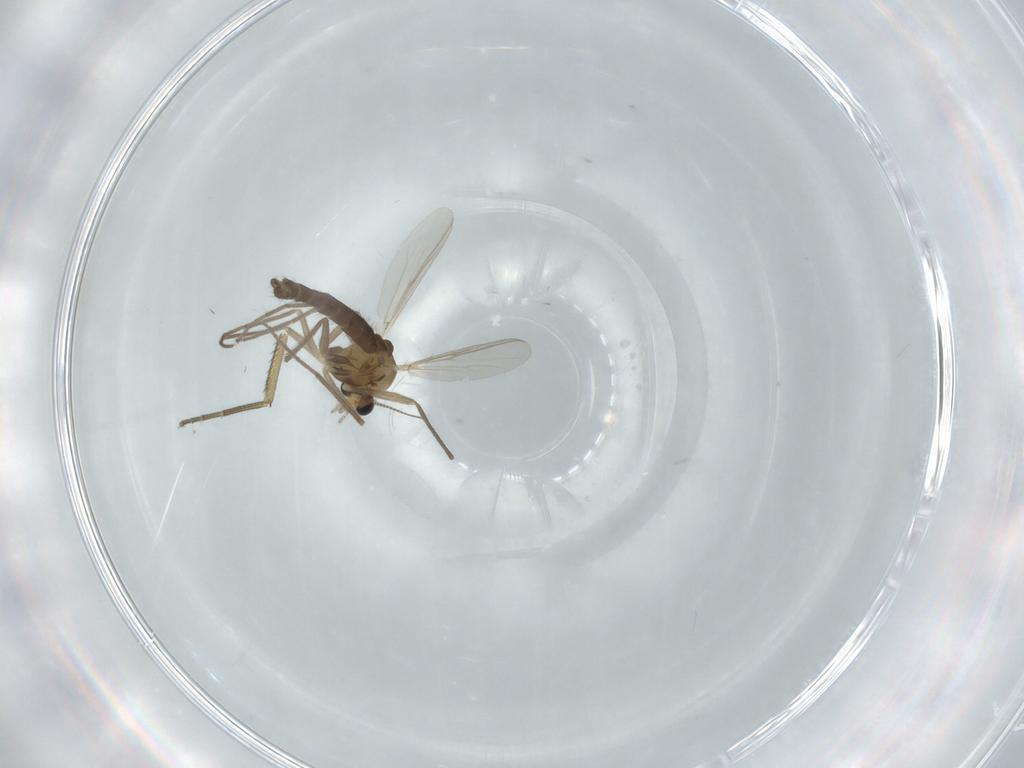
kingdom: Animalia
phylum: Arthropoda
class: Insecta
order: Diptera
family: Chironomidae
